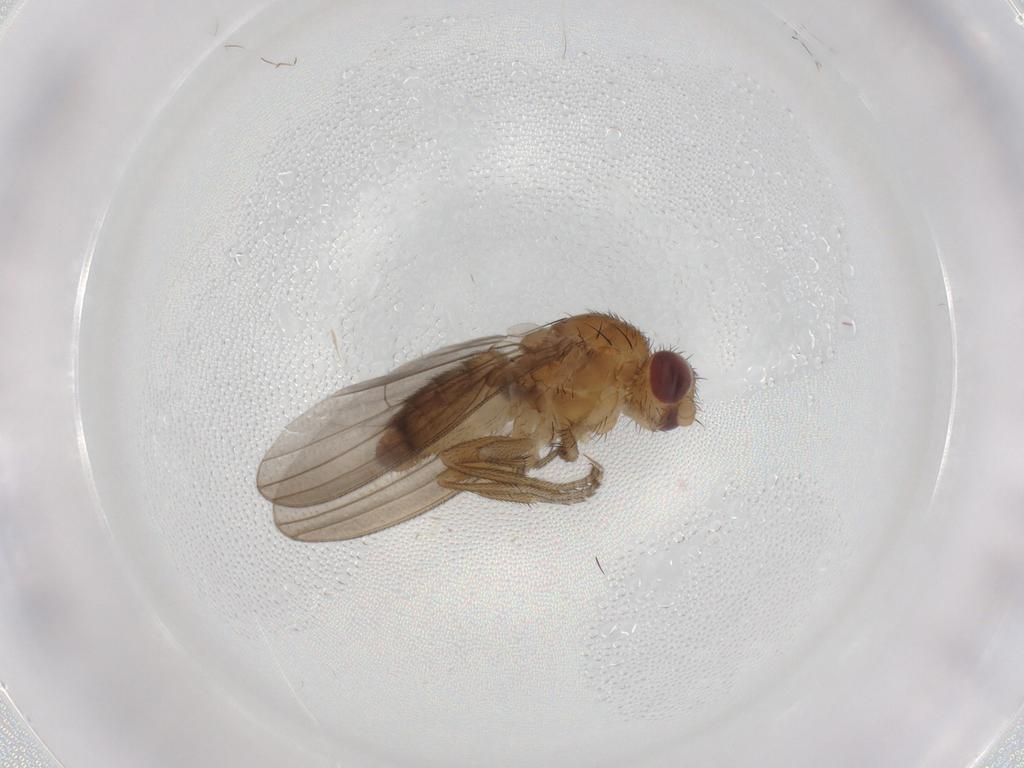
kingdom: Animalia
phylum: Arthropoda
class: Insecta
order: Diptera
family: Natalimyzidae
